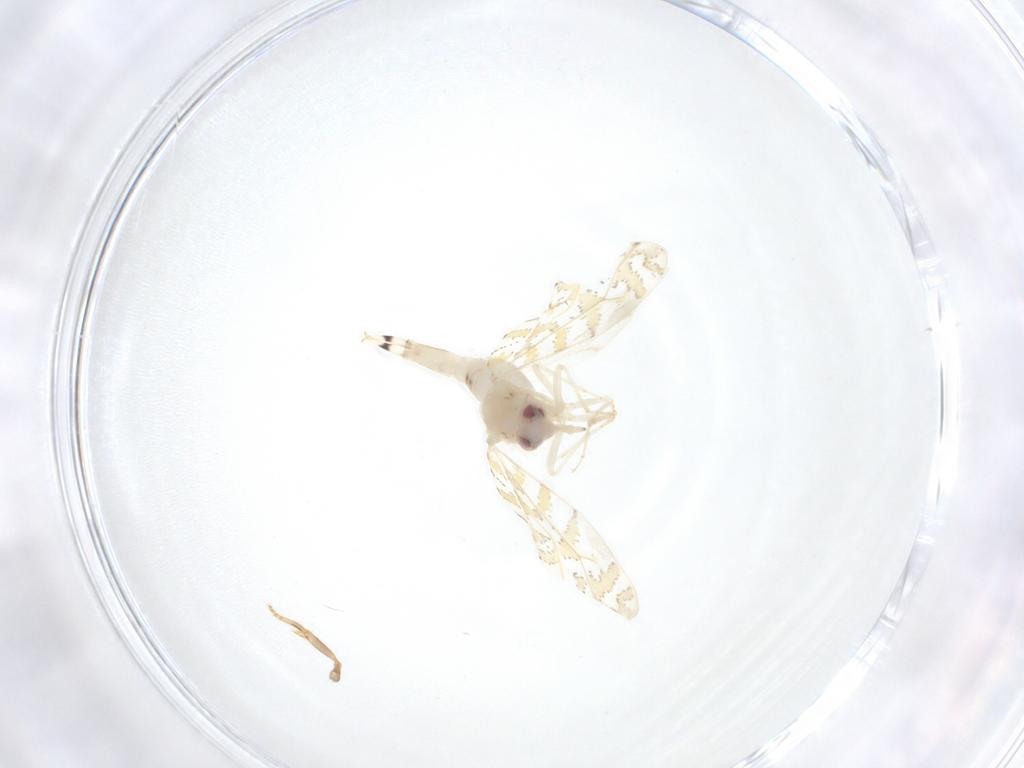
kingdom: Animalia
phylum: Arthropoda
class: Insecta
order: Hemiptera
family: Aleyrodidae
